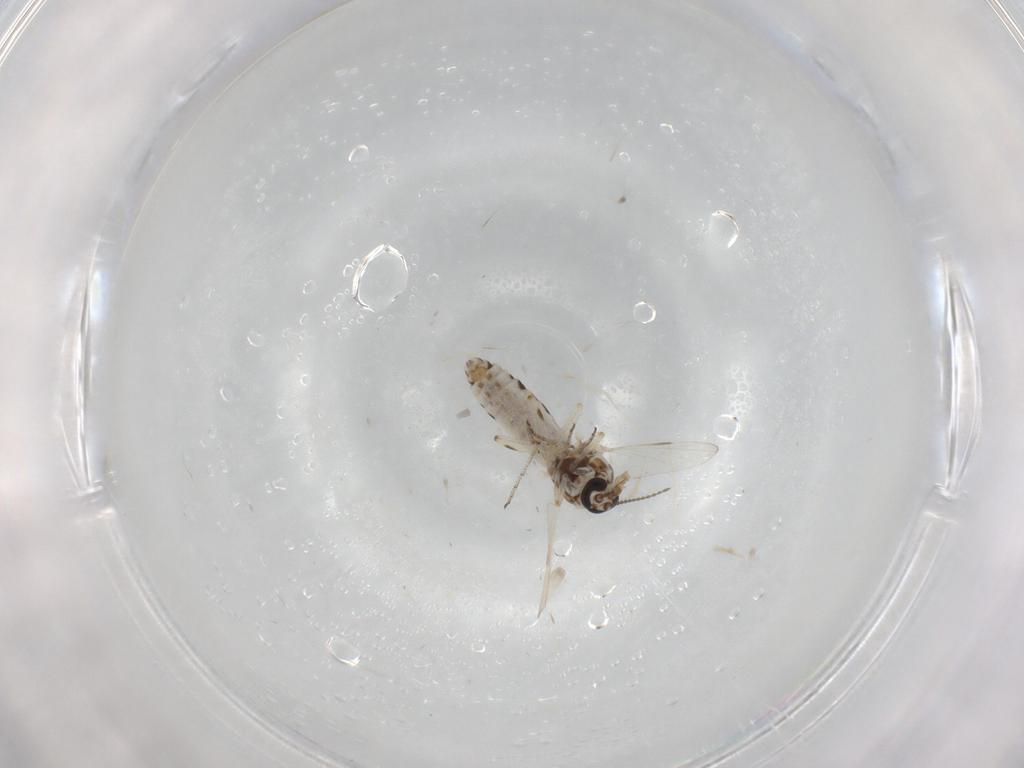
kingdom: Animalia
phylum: Arthropoda
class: Insecta
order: Diptera
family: Ceratopogonidae
